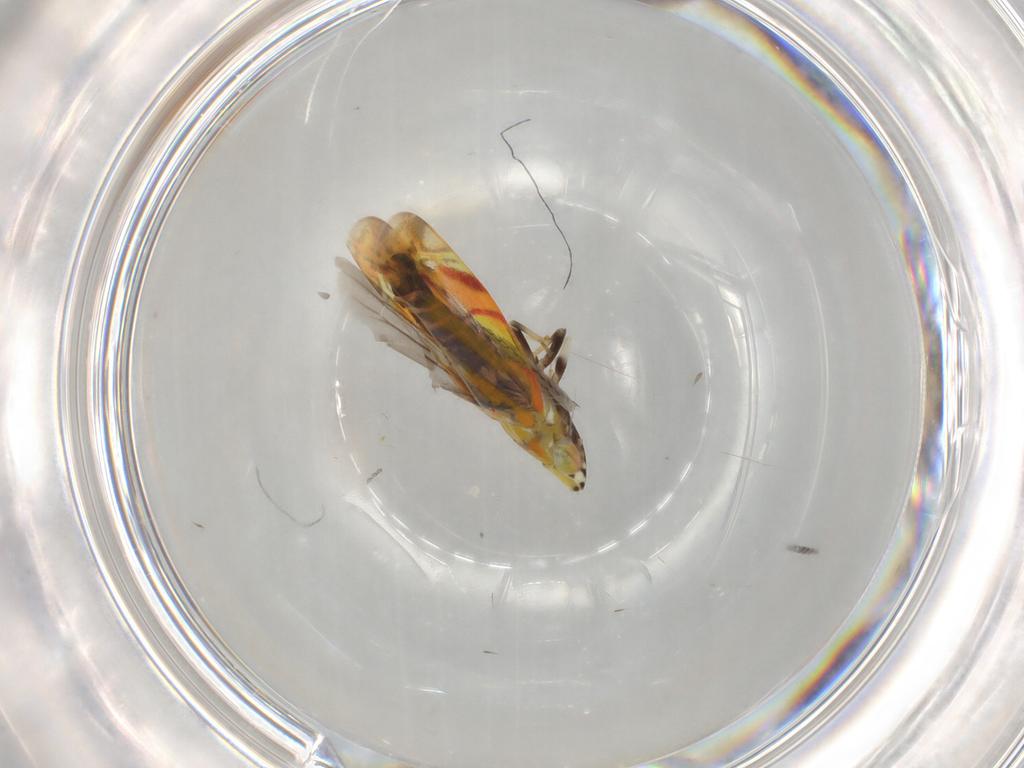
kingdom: Animalia
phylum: Arthropoda
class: Insecta
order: Hemiptera
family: Cicadellidae
